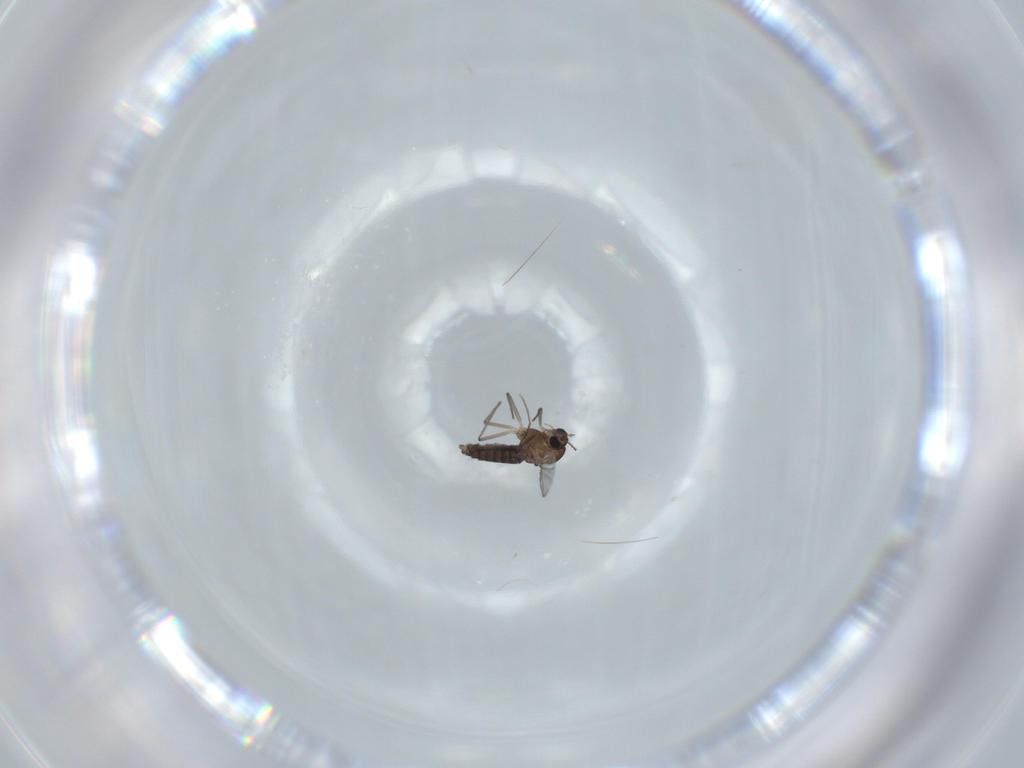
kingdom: Animalia
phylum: Arthropoda
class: Insecta
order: Diptera
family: Chironomidae
